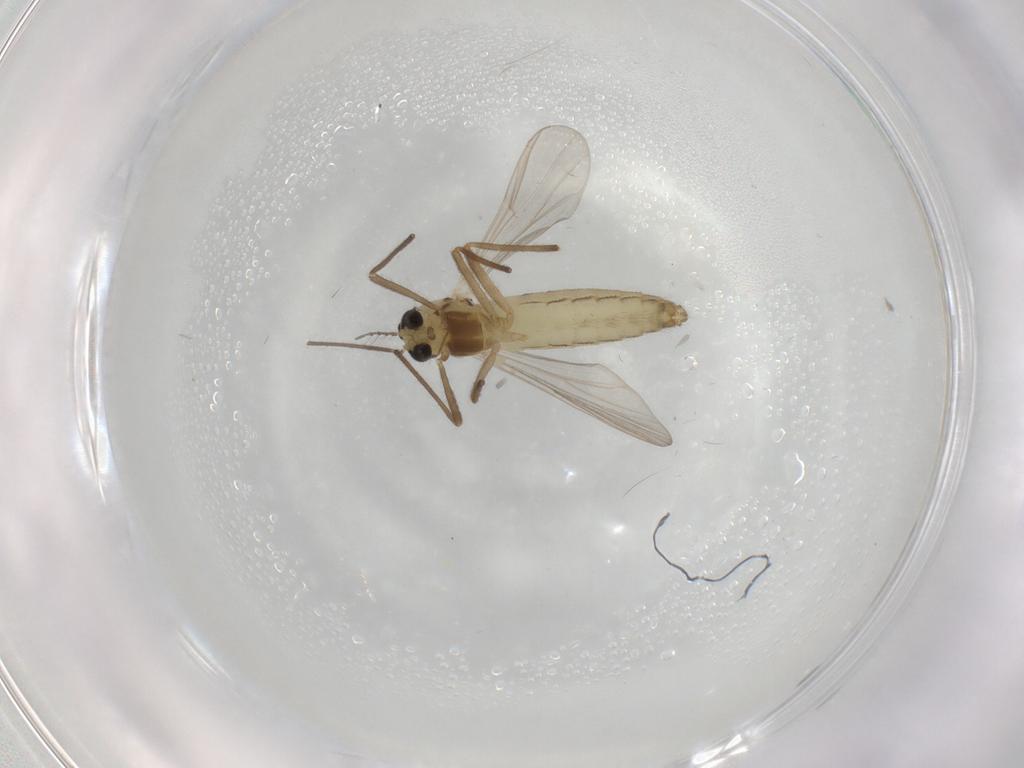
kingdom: Animalia
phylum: Arthropoda
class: Insecta
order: Diptera
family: Chironomidae
